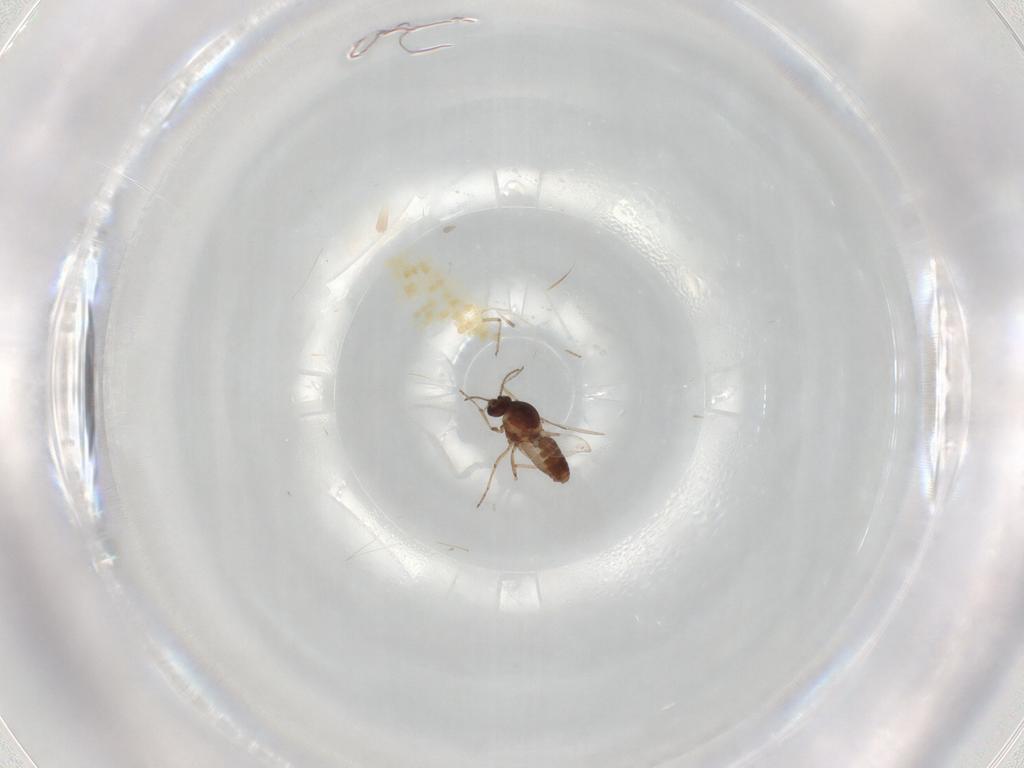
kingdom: Animalia
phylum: Arthropoda
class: Insecta
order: Diptera
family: Ceratopogonidae
